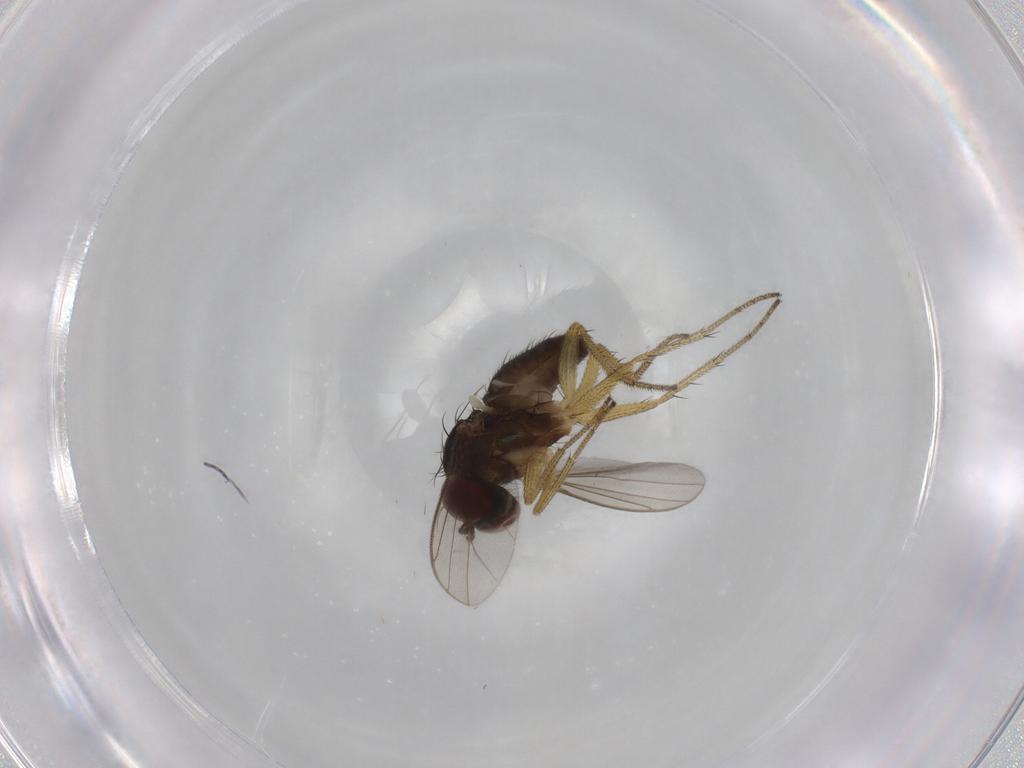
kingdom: Animalia
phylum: Arthropoda
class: Insecta
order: Diptera
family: Dolichopodidae
